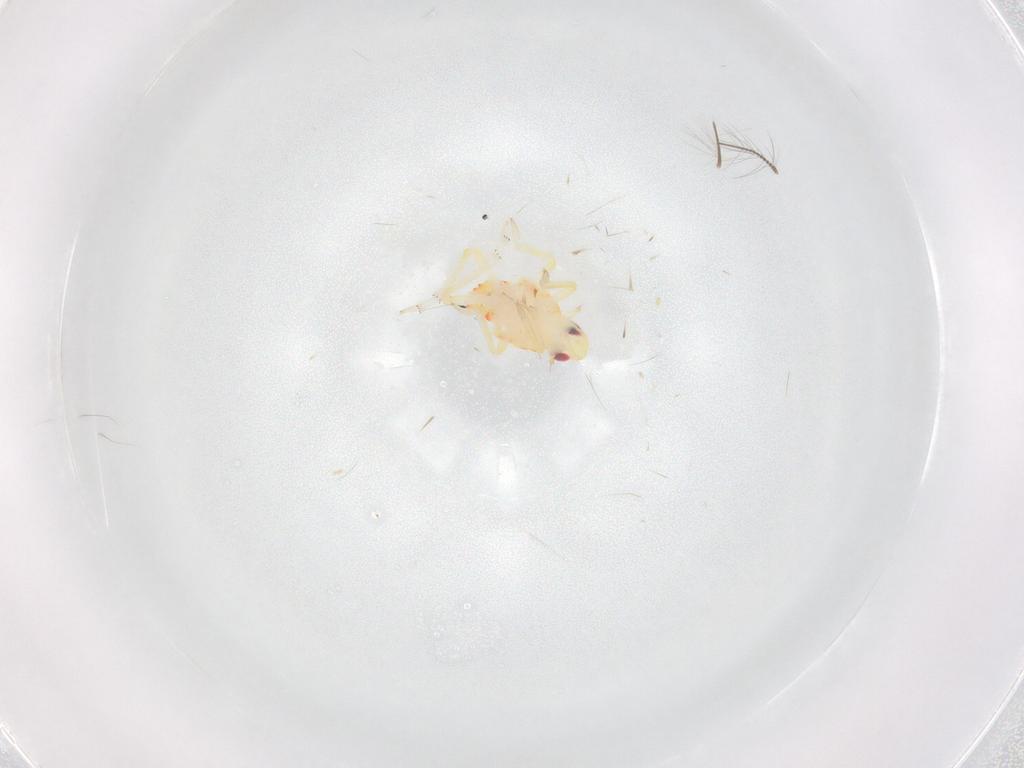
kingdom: Animalia
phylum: Arthropoda
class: Insecta
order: Hemiptera
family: Tropiduchidae
